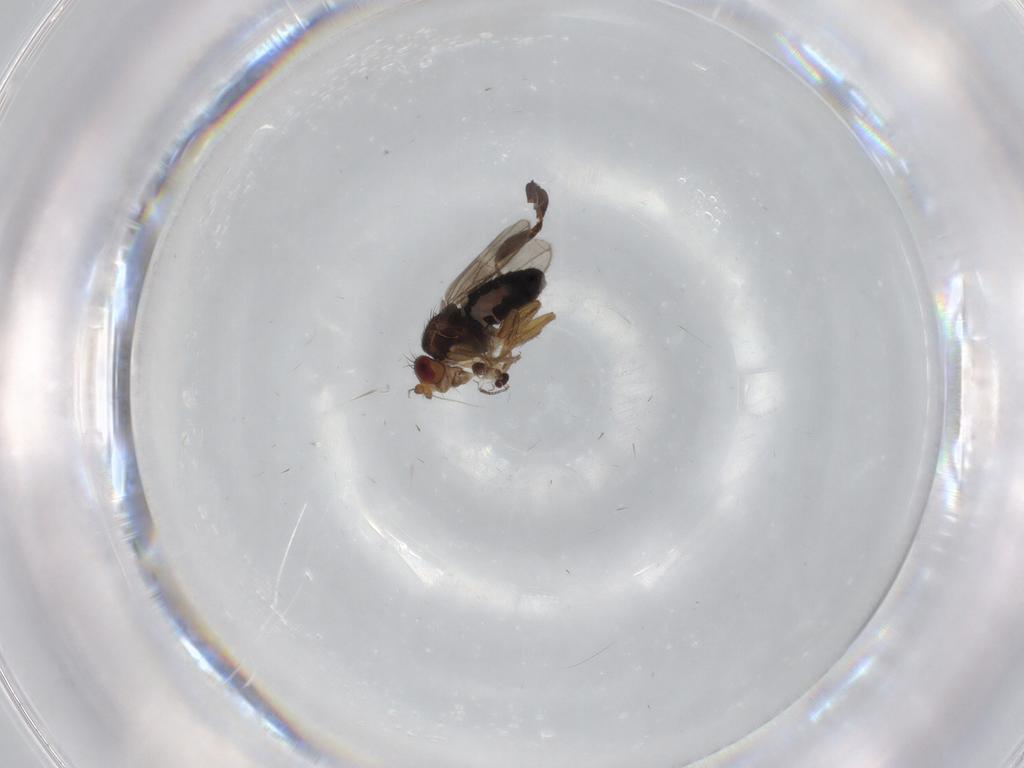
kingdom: Animalia
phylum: Arthropoda
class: Insecta
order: Diptera
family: Sphaeroceridae
